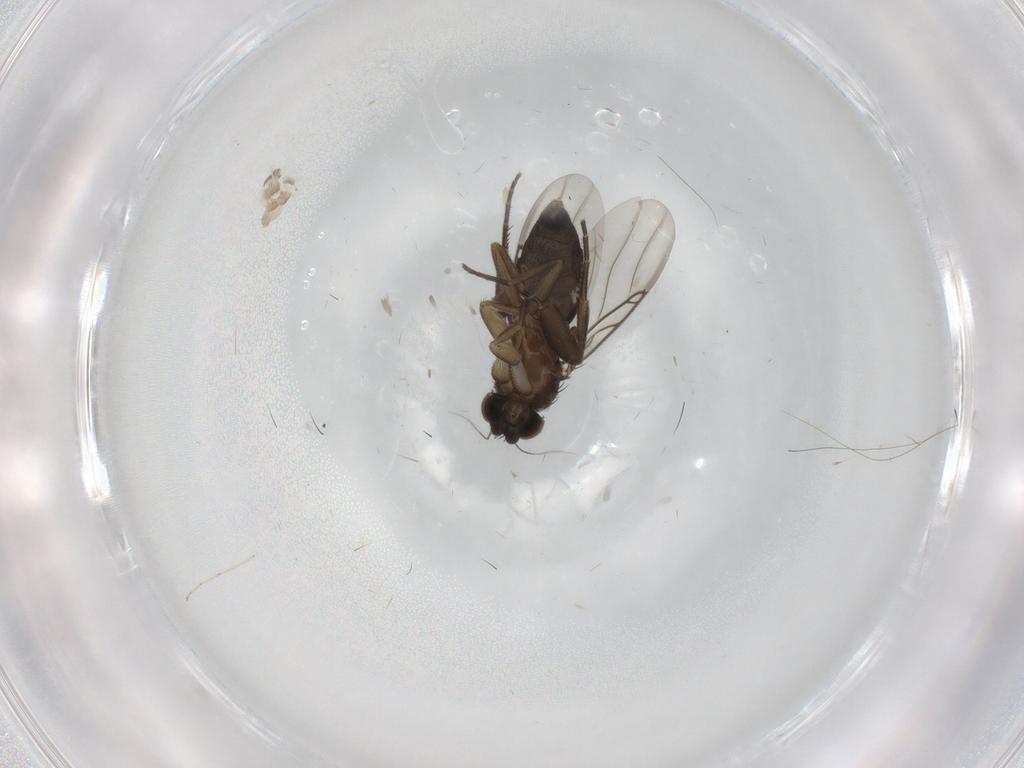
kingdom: Animalia
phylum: Arthropoda
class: Insecta
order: Diptera
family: Phoridae
